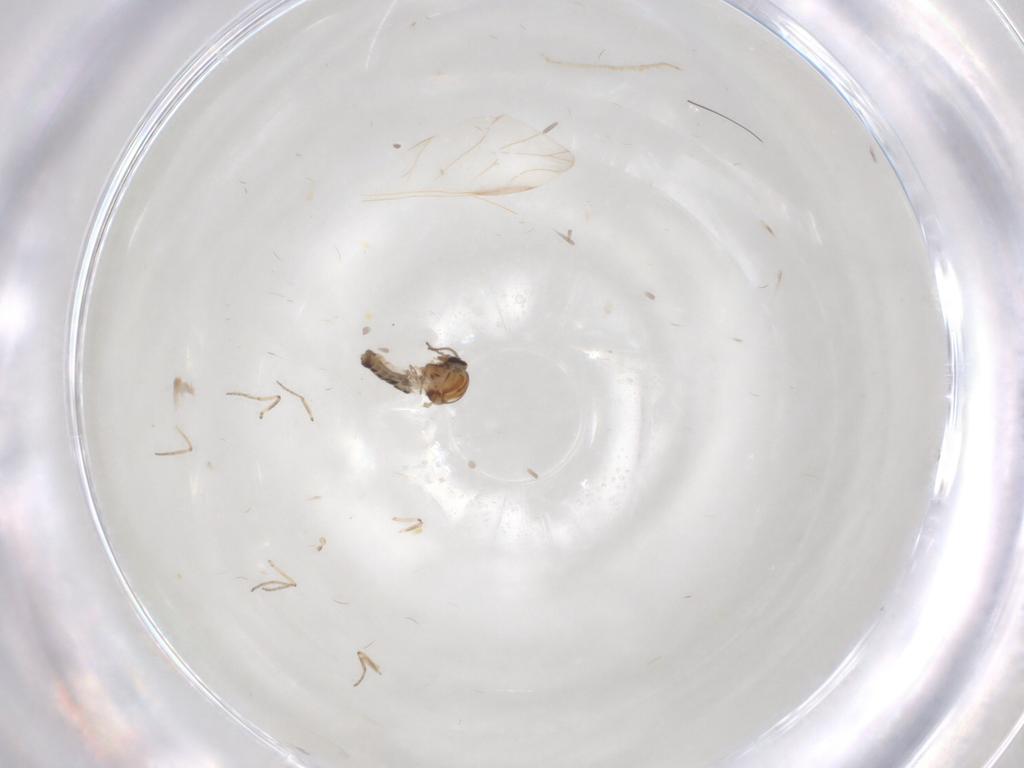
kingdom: Animalia
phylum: Arthropoda
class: Insecta
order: Diptera
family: Ceratopogonidae
